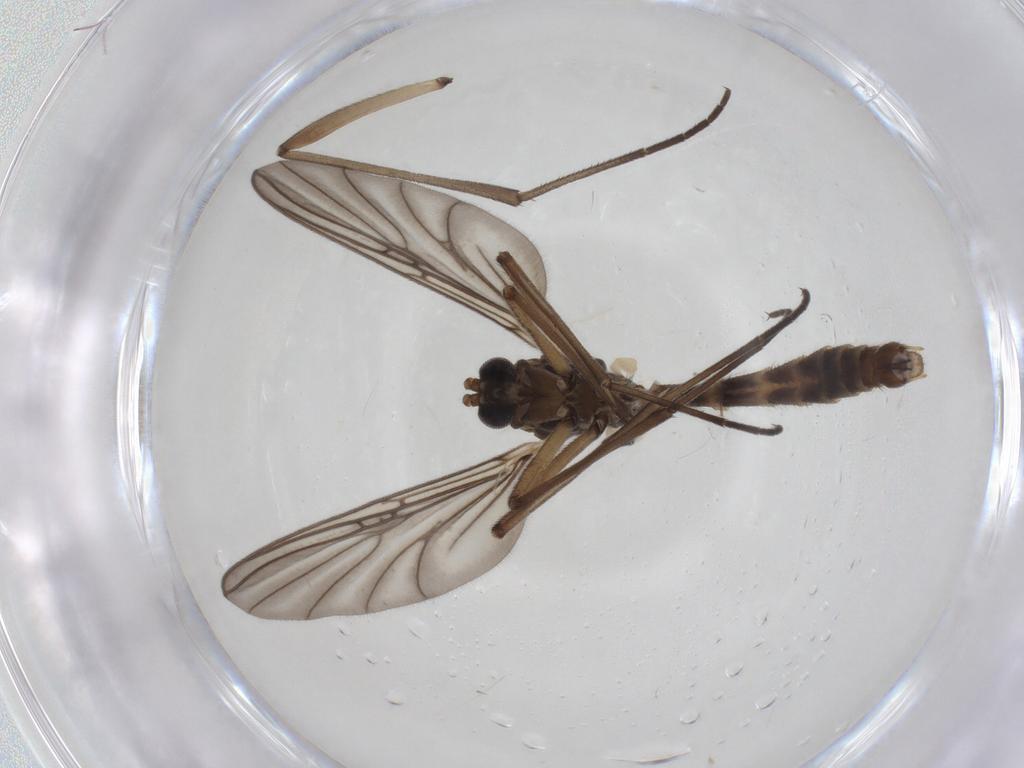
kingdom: Animalia
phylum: Arthropoda
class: Insecta
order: Diptera
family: Mycetophilidae
